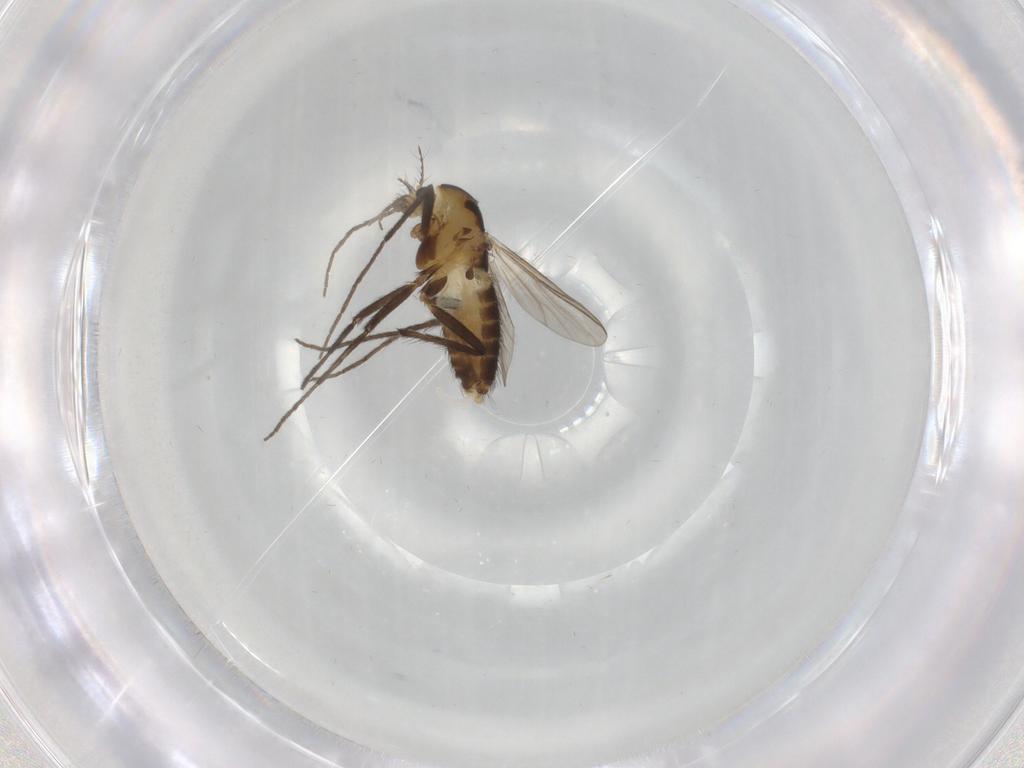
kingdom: Animalia
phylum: Arthropoda
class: Insecta
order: Diptera
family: Chironomidae
